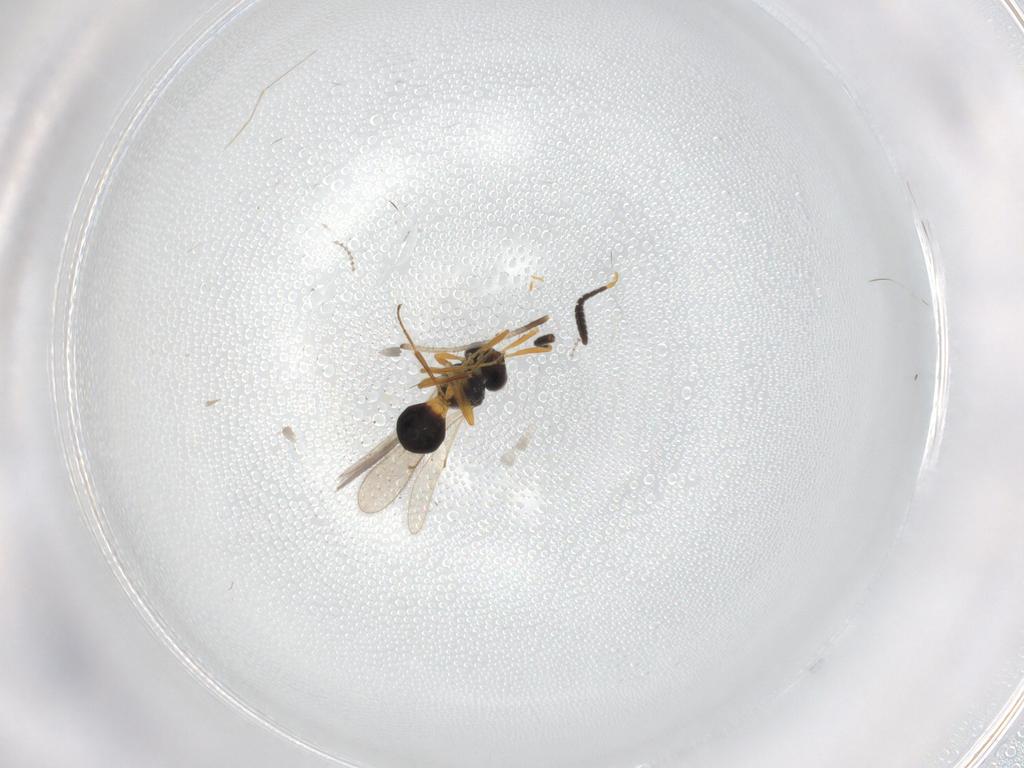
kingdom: Animalia
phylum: Arthropoda
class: Insecta
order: Hymenoptera
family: Scelionidae
